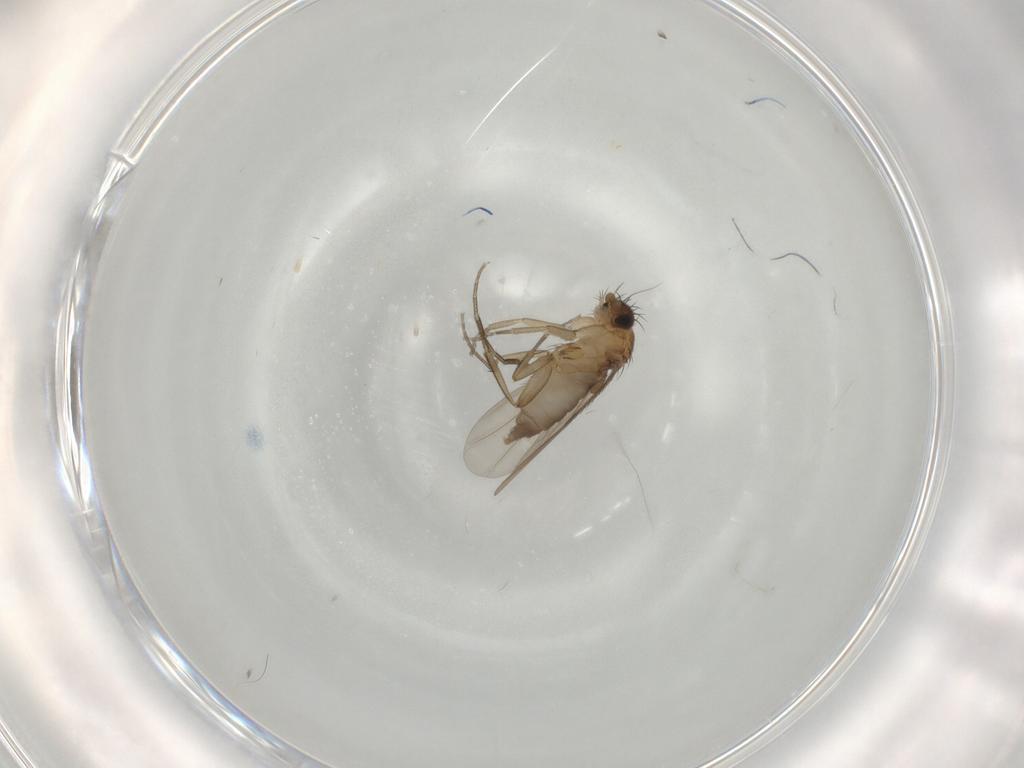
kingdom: Animalia
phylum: Arthropoda
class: Insecta
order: Diptera
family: Phoridae
